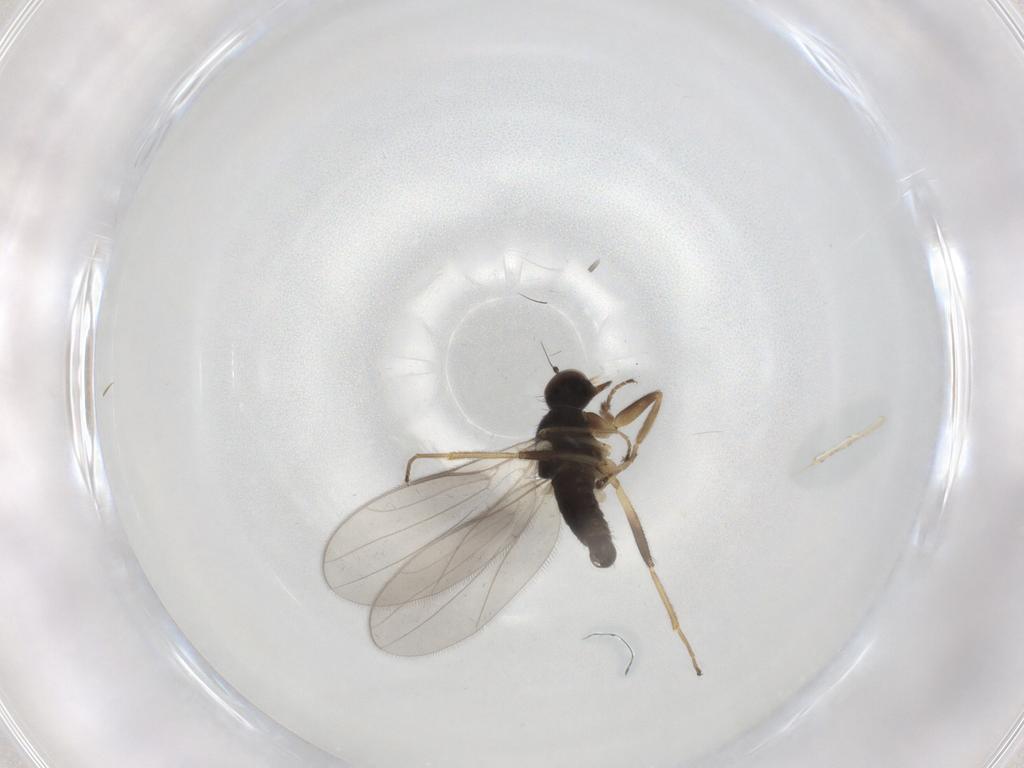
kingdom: Animalia
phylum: Arthropoda
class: Insecta
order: Diptera
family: Hybotidae
